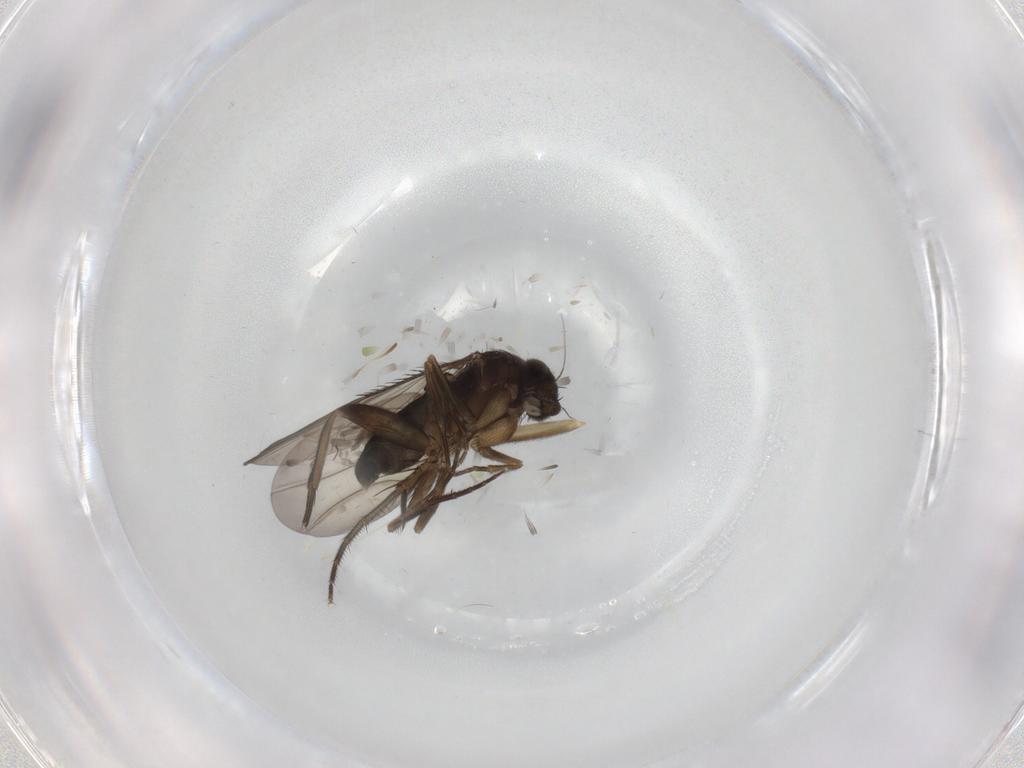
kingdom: Animalia
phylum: Arthropoda
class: Insecta
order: Diptera
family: Phoridae
